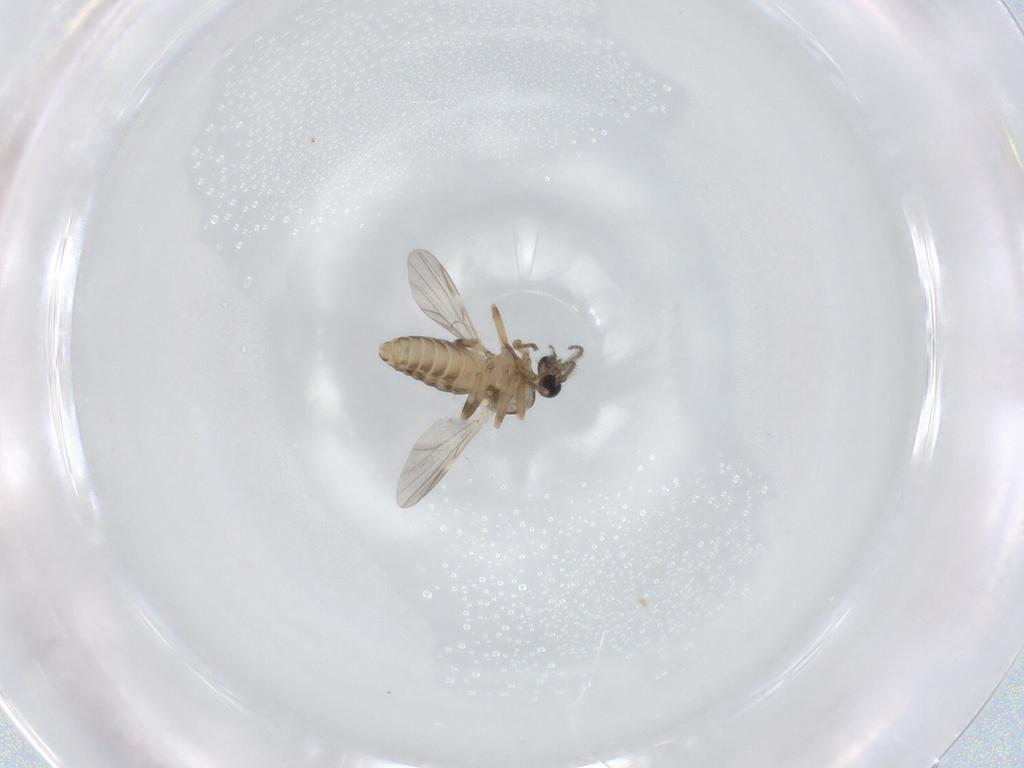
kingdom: Animalia
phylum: Arthropoda
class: Insecta
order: Diptera
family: Ceratopogonidae
